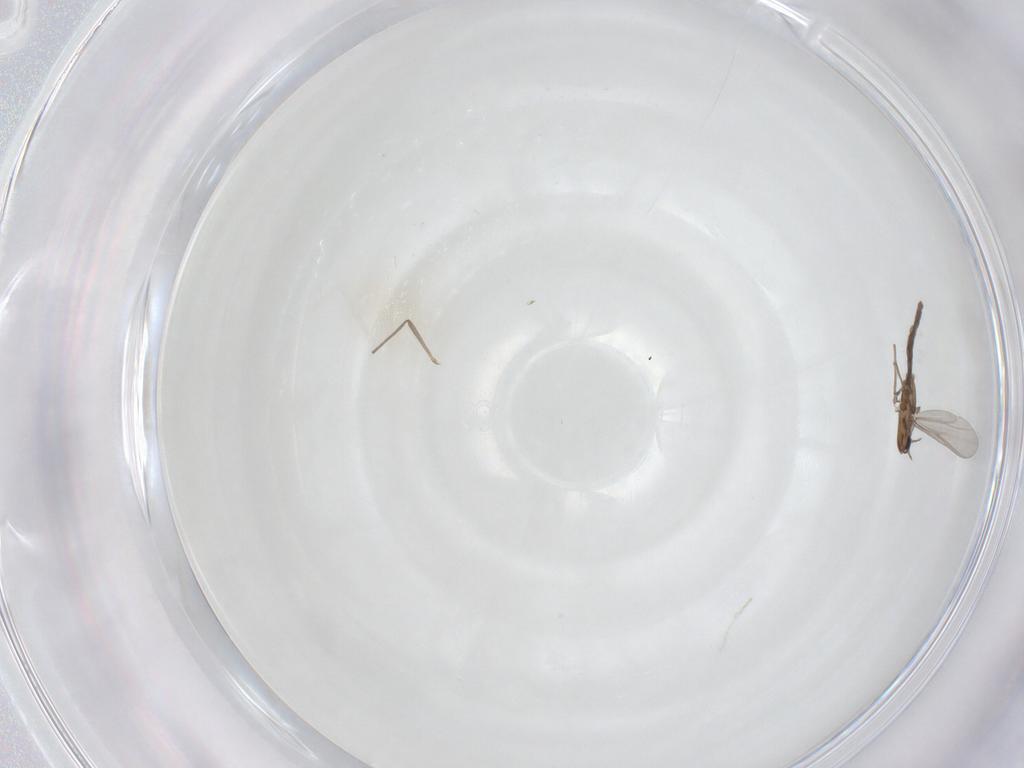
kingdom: Animalia
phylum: Arthropoda
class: Insecta
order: Diptera
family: Chironomidae
